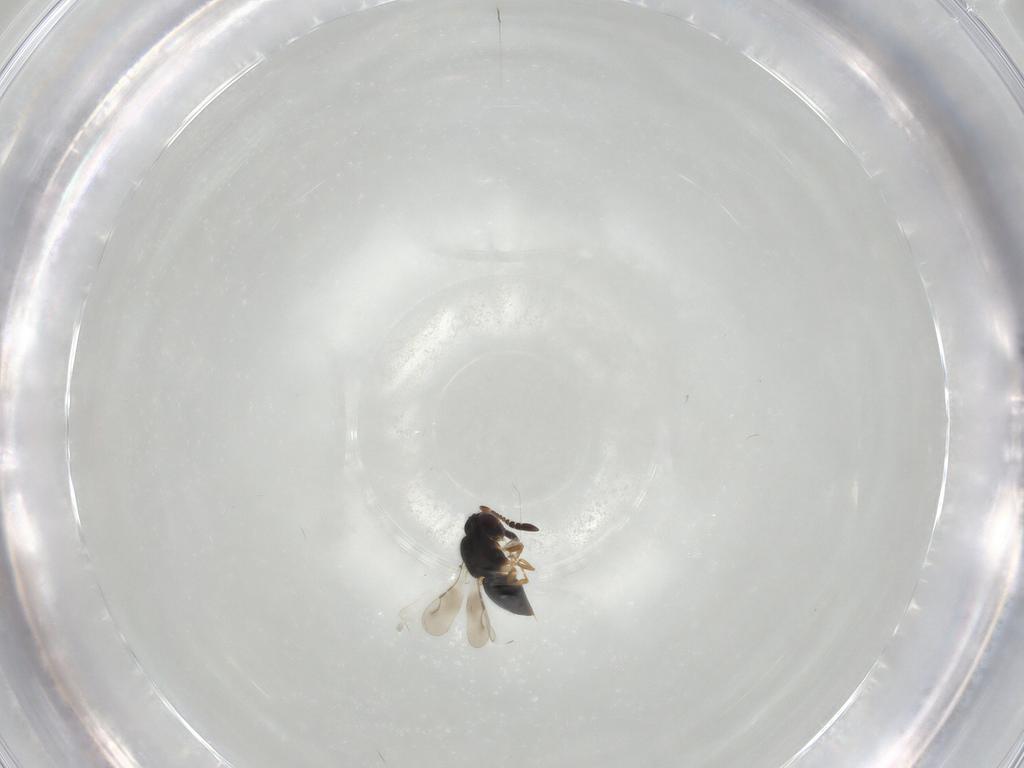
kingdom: Animalia
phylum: Arthropoda
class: Insecta
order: Hymenoptera
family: Ceraphronidae
